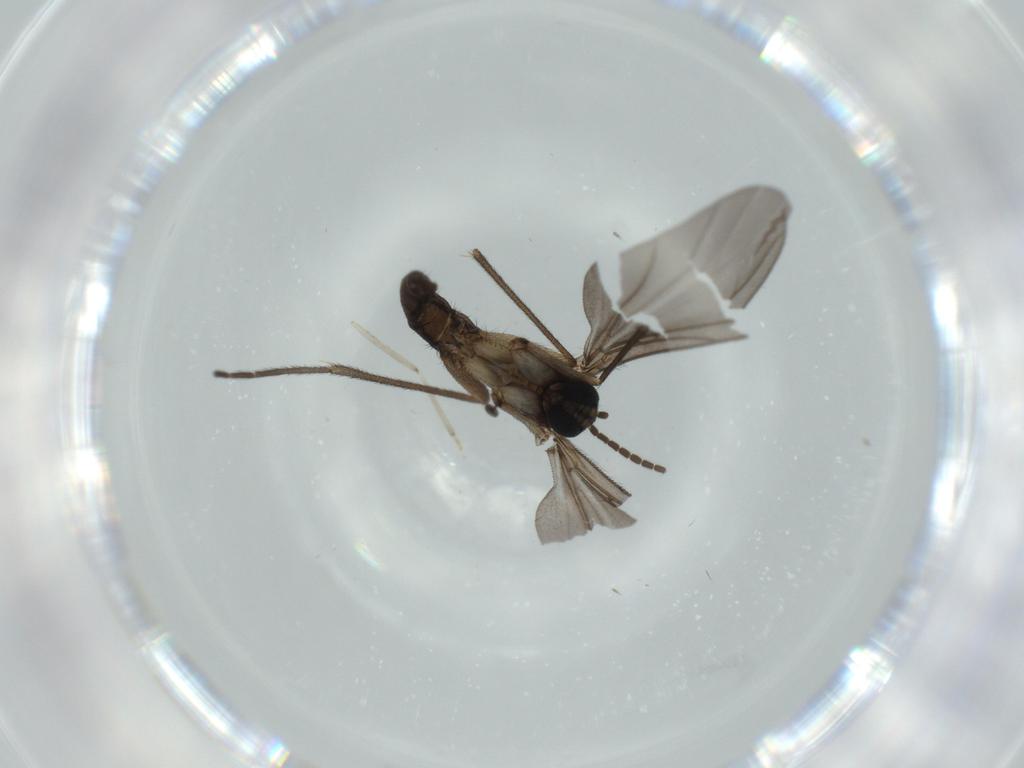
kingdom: Animalia
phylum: Arthropoda
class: Insecta
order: Diptera
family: Sciaridae
